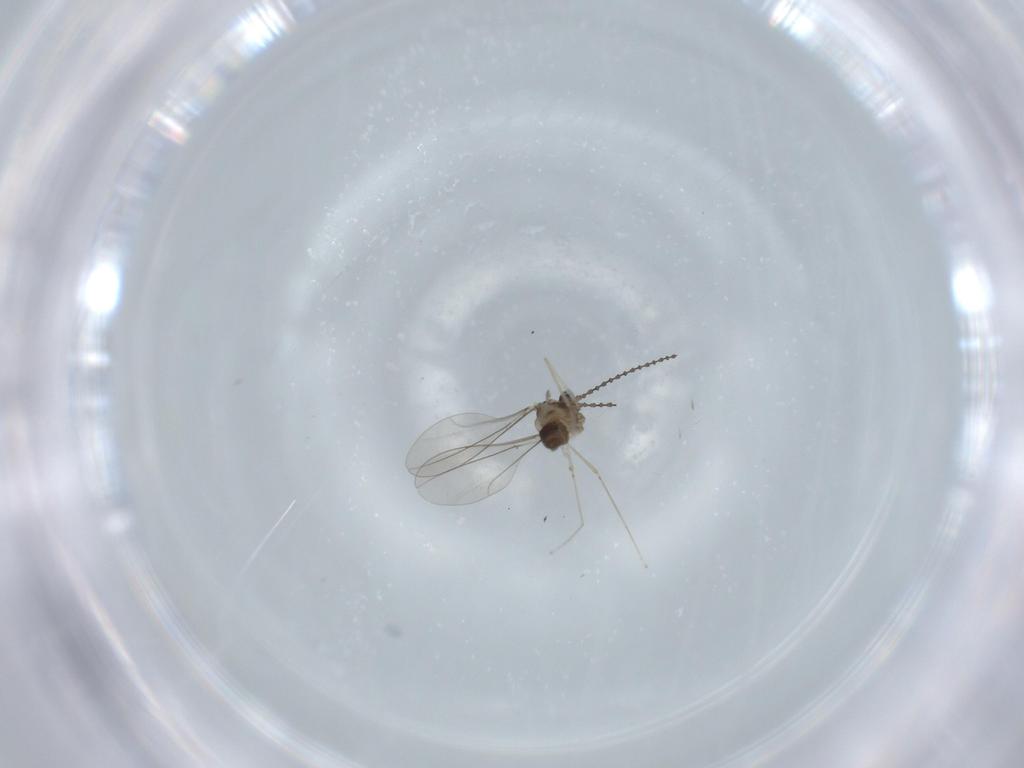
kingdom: Animalia
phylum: Arthropoda
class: Insecta
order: Diptera
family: Cecidomyiidae
